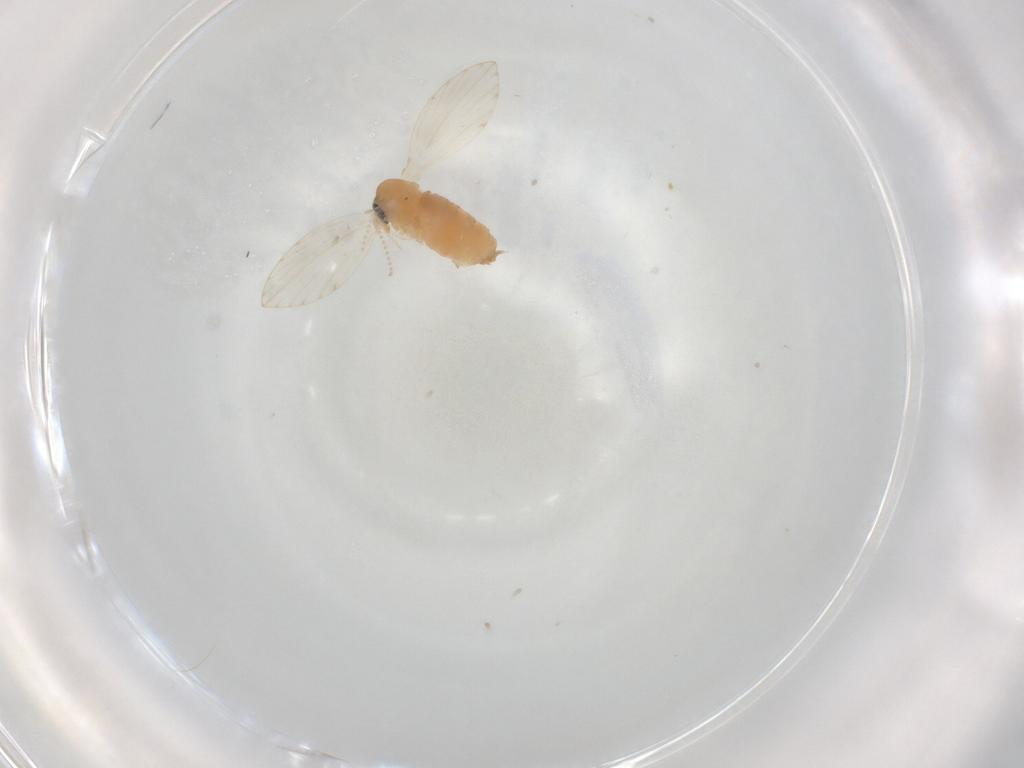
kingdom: Animalia
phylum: Arthropoda
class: Insecta
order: Diptera
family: Psychodidae
